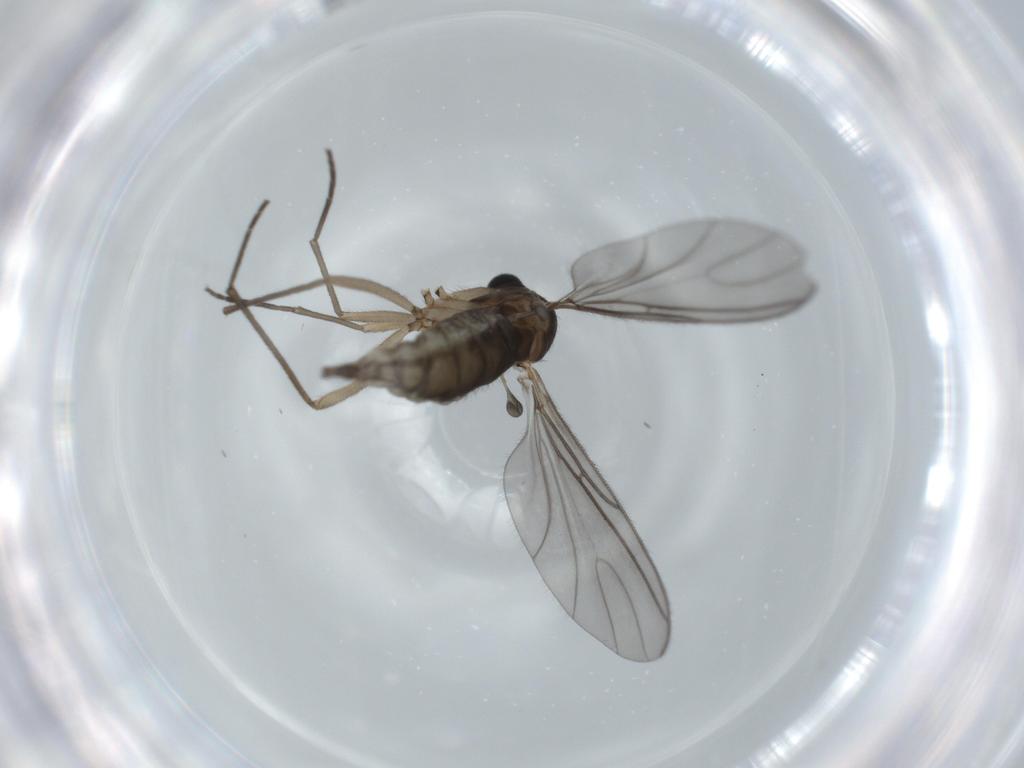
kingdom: Animalia
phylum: Arthropoda
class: Insecta
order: Diptera
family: Sciaridae
